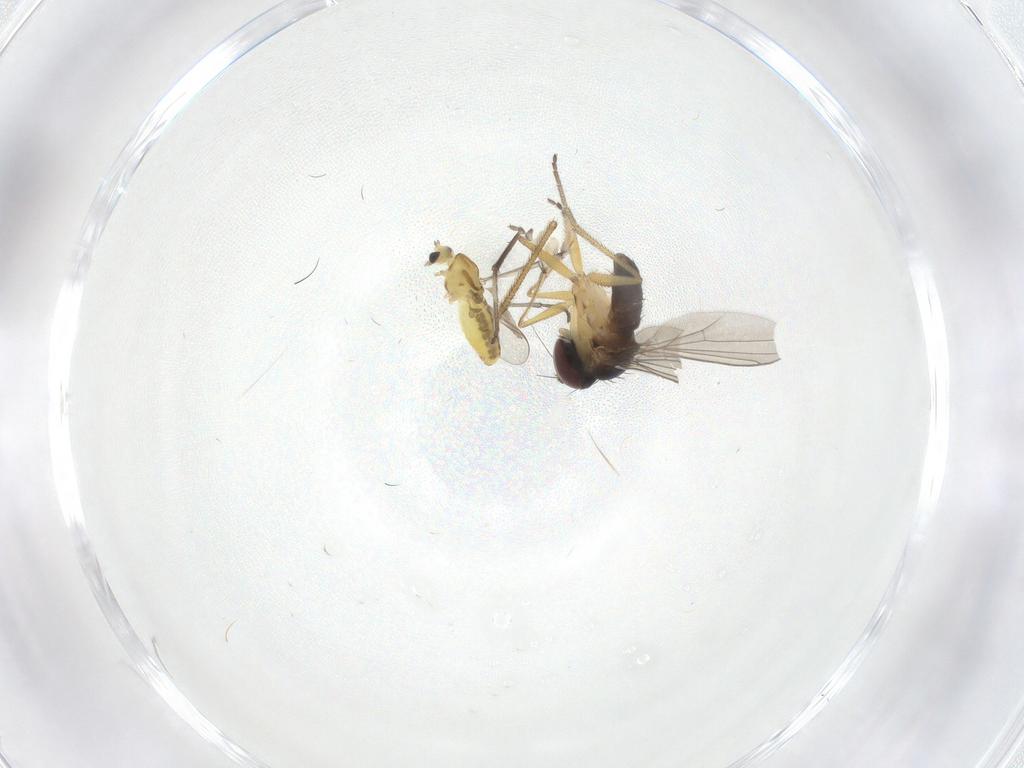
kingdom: Animalia
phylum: Arthropoda
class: Insecta
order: Diptera
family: Chironomidae
